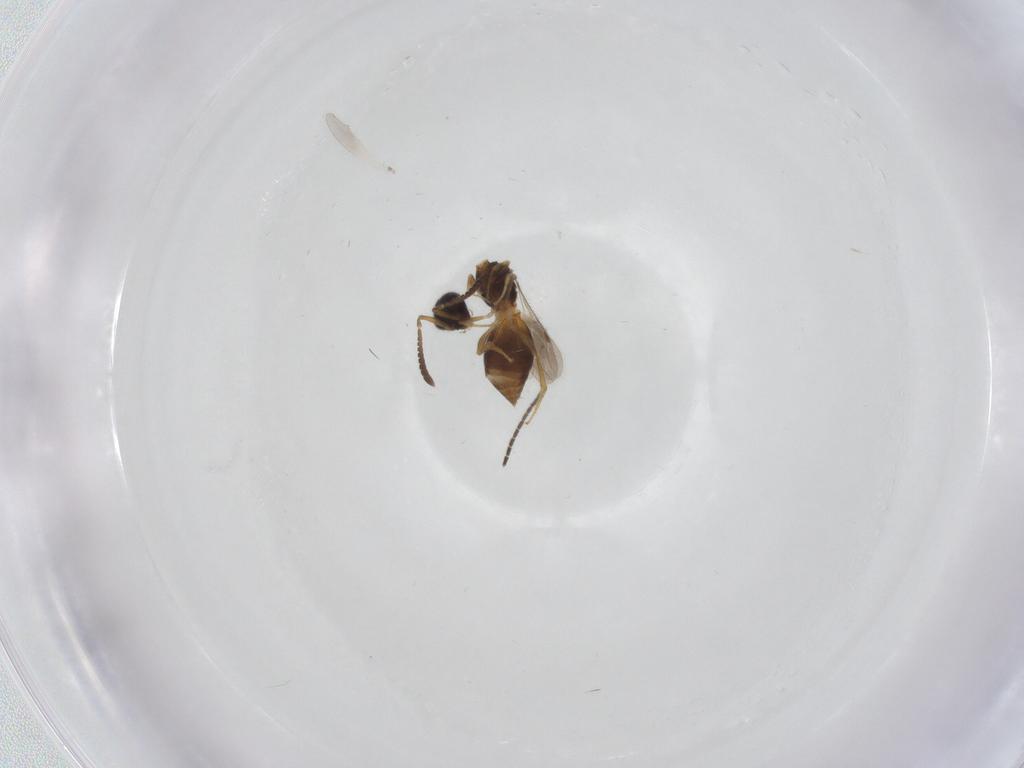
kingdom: Animalia
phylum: Arthropoda
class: Insecta
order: Hymenoptera
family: Megaspilidae
